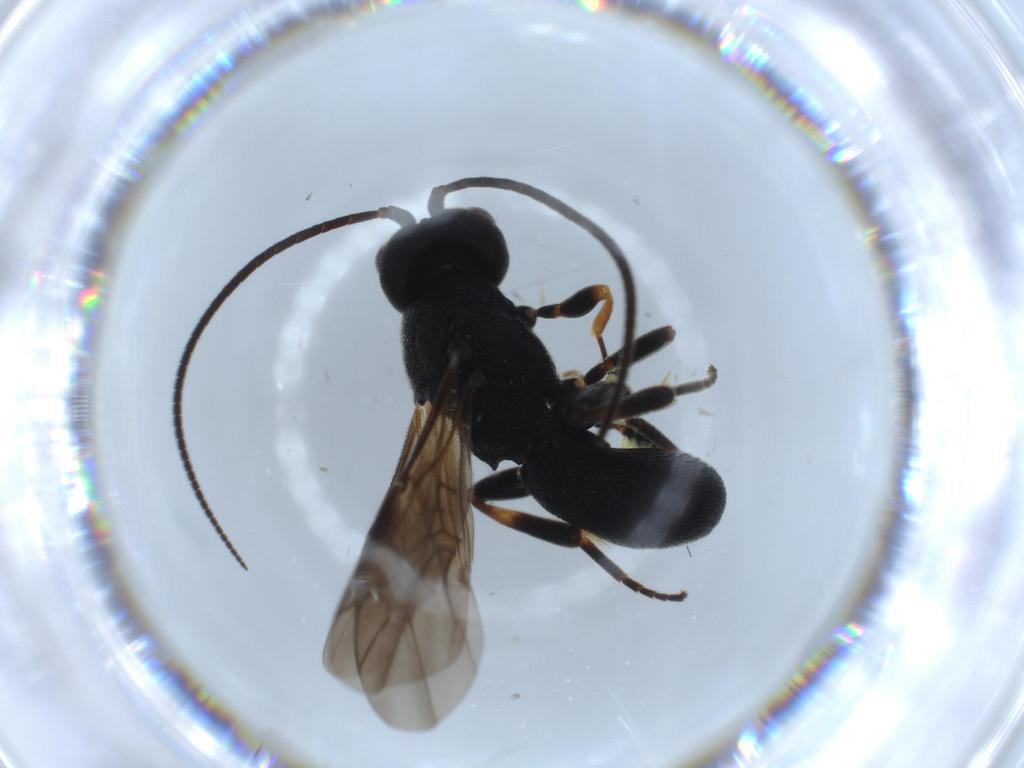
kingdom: Animalia
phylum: Arthropoda
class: Insecta
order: Hymenoptera
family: Braconidae
